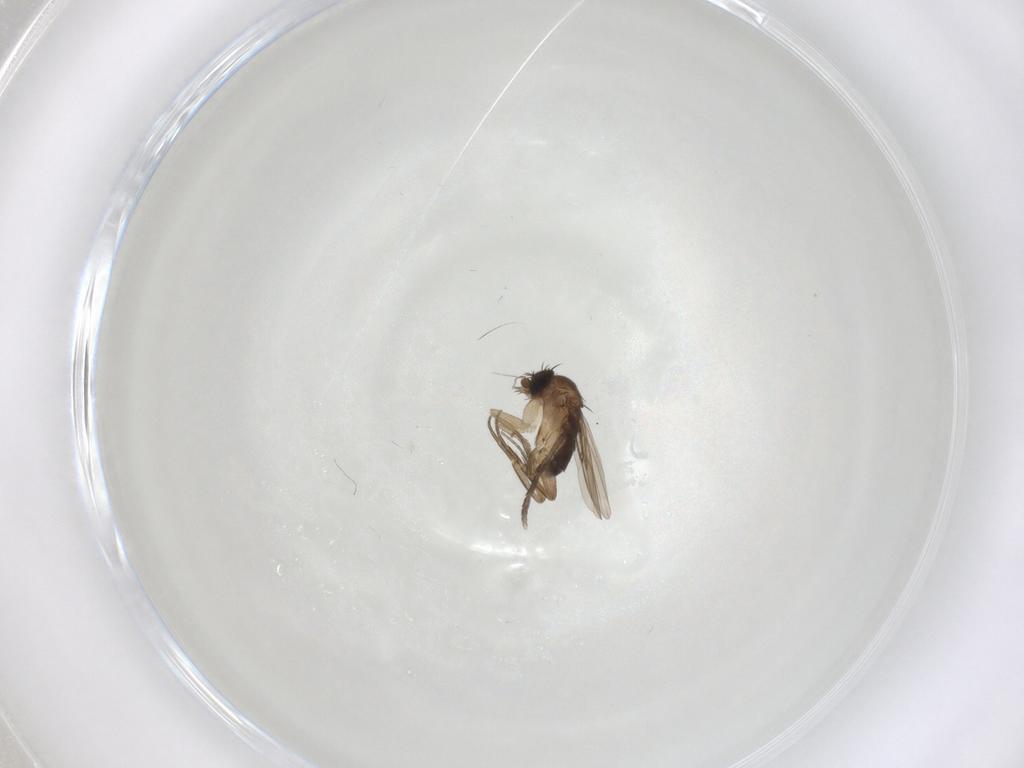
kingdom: Animalia
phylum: Arthropoda
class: Insecta
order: Diptera
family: Phoridae
